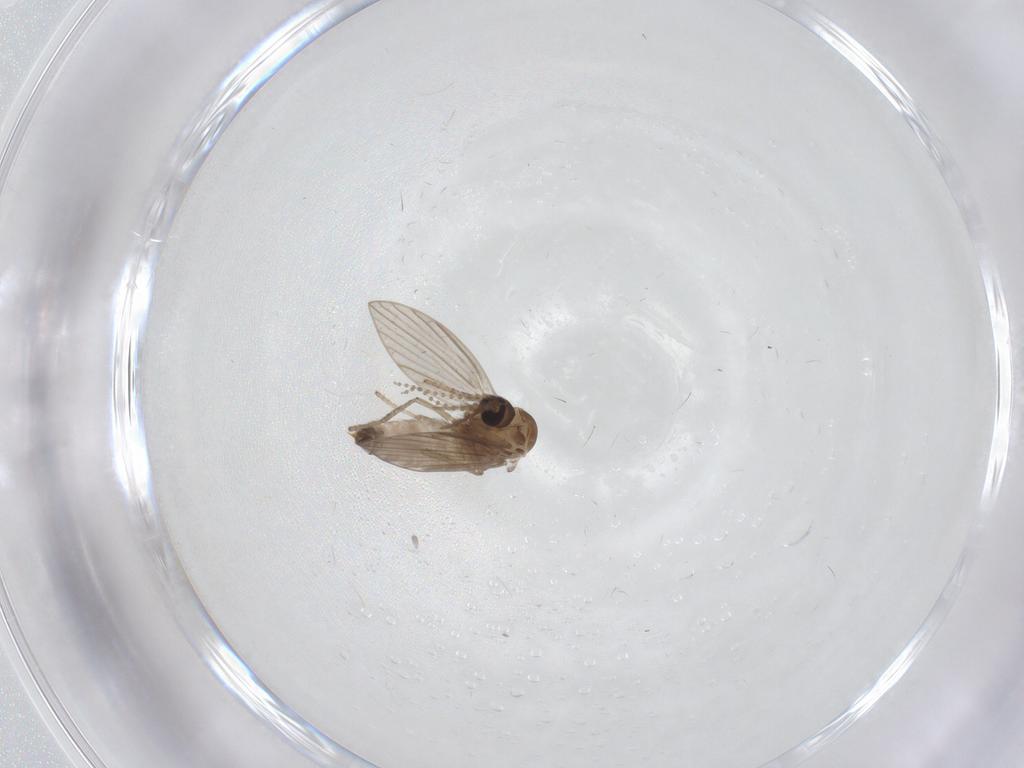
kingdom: Animalia
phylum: Arthropoda
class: Insecta
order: Diptera
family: Psychodidae
